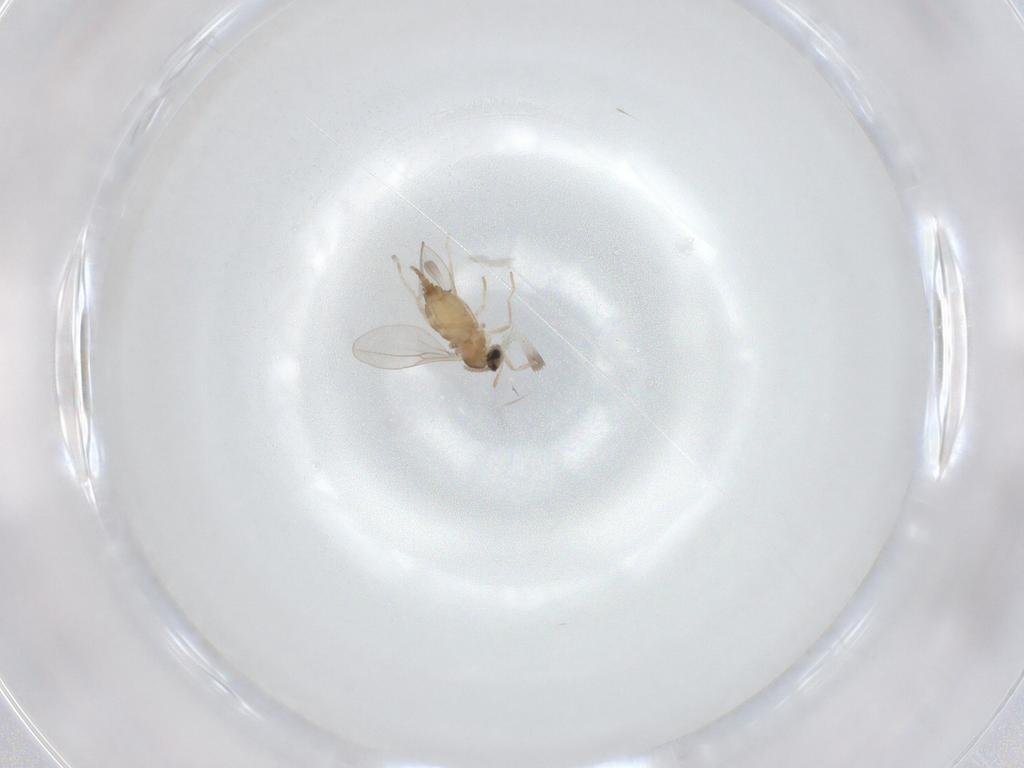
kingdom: Animalia
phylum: Arthropoda
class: Insecta
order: Diptera
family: Cecidomyiidae
